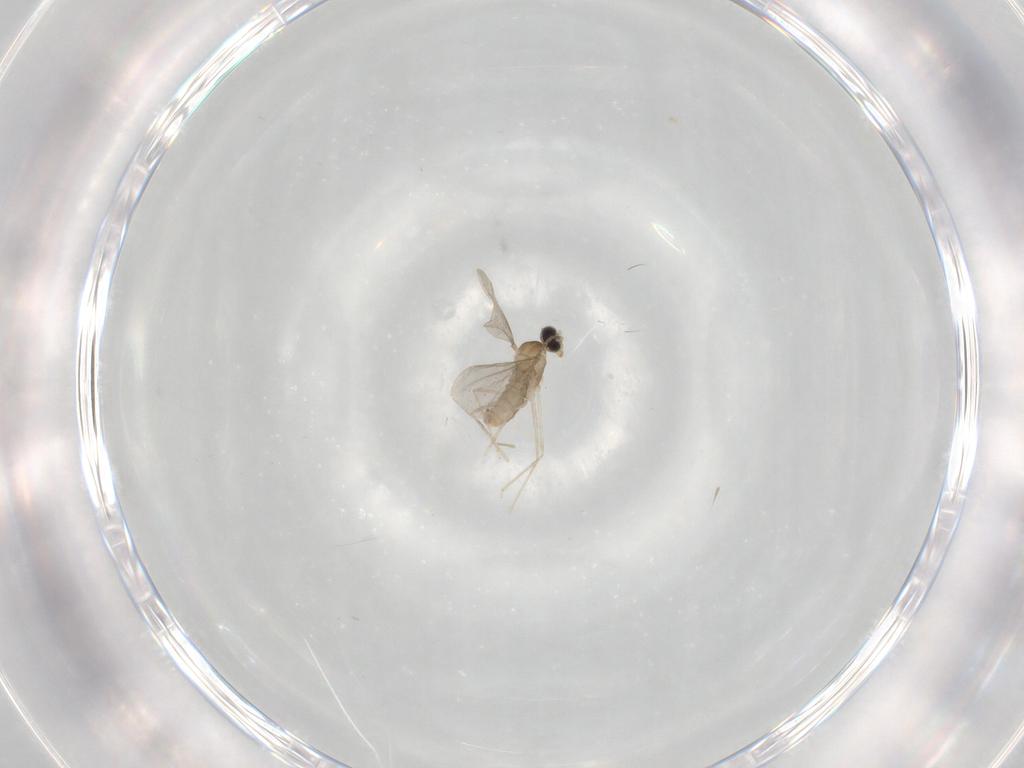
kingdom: Animalia
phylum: Arthropoda
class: Insecta
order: Diptera
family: Cecidomyiidae
